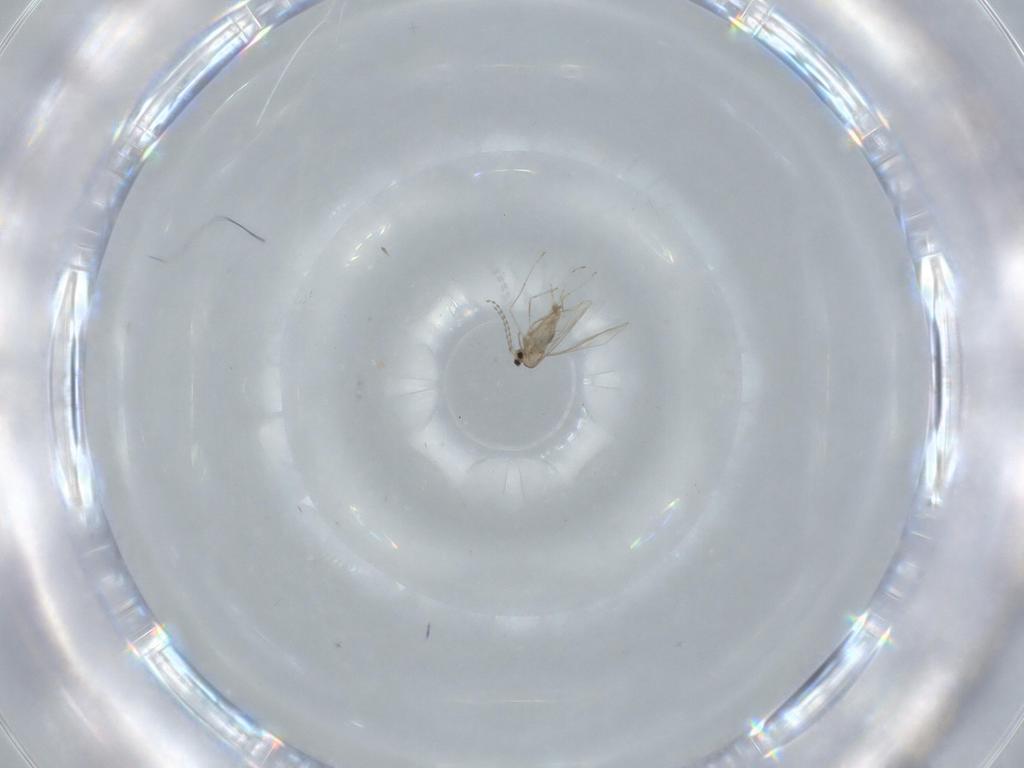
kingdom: Animalia
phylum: Arthropoda
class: Insecta
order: Diptera
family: Cecidomyiidae
